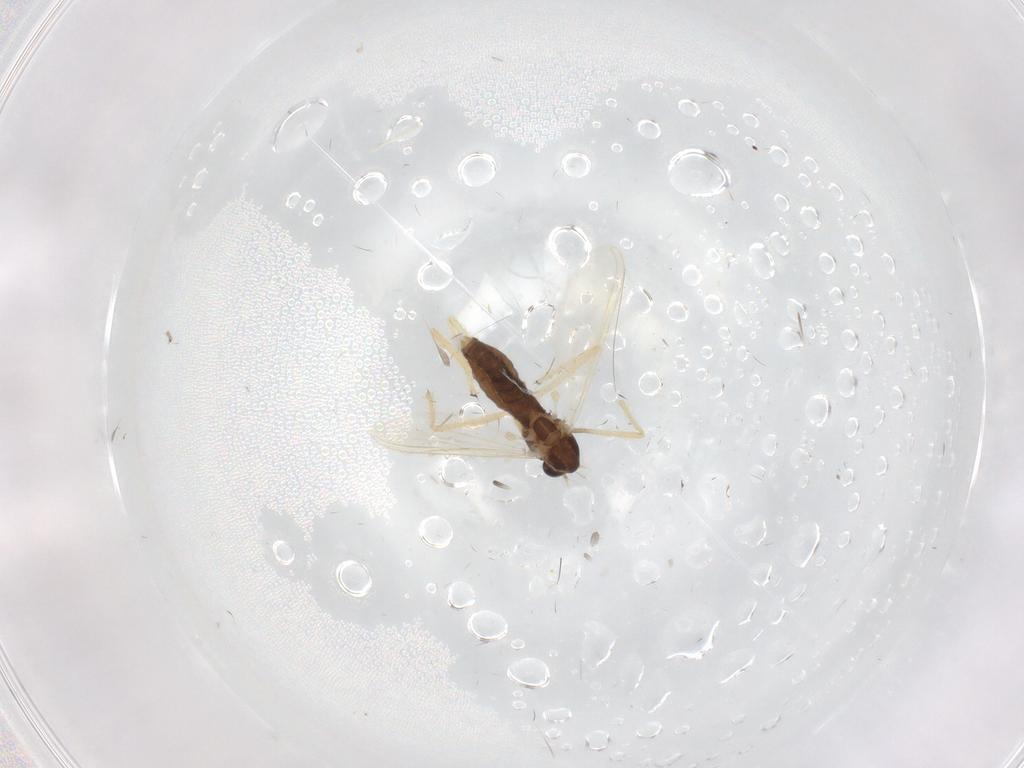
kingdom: Animalia
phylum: Arthropoda
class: Insecta
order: Diptera
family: Chironomidae
